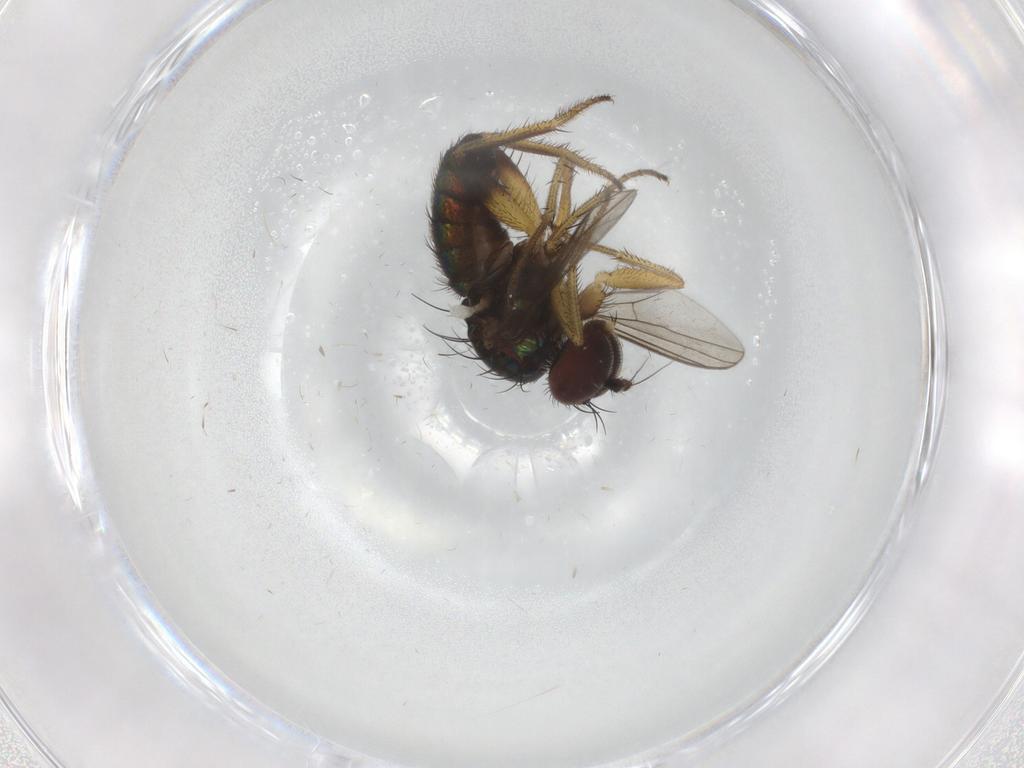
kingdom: Animalia
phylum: Arthropoda
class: Insecta
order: Diptera
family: Dolichopodidae
